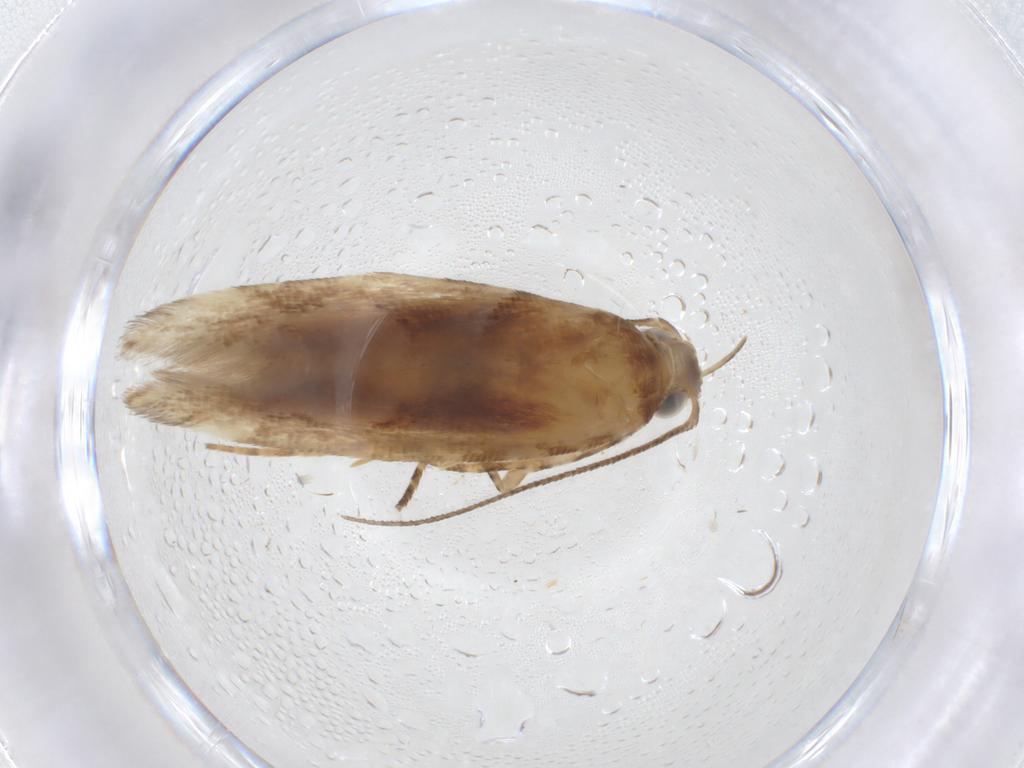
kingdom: Animalia
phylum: Arthropoda
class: Insecta
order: Lepidoptera
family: Gelechiidae
